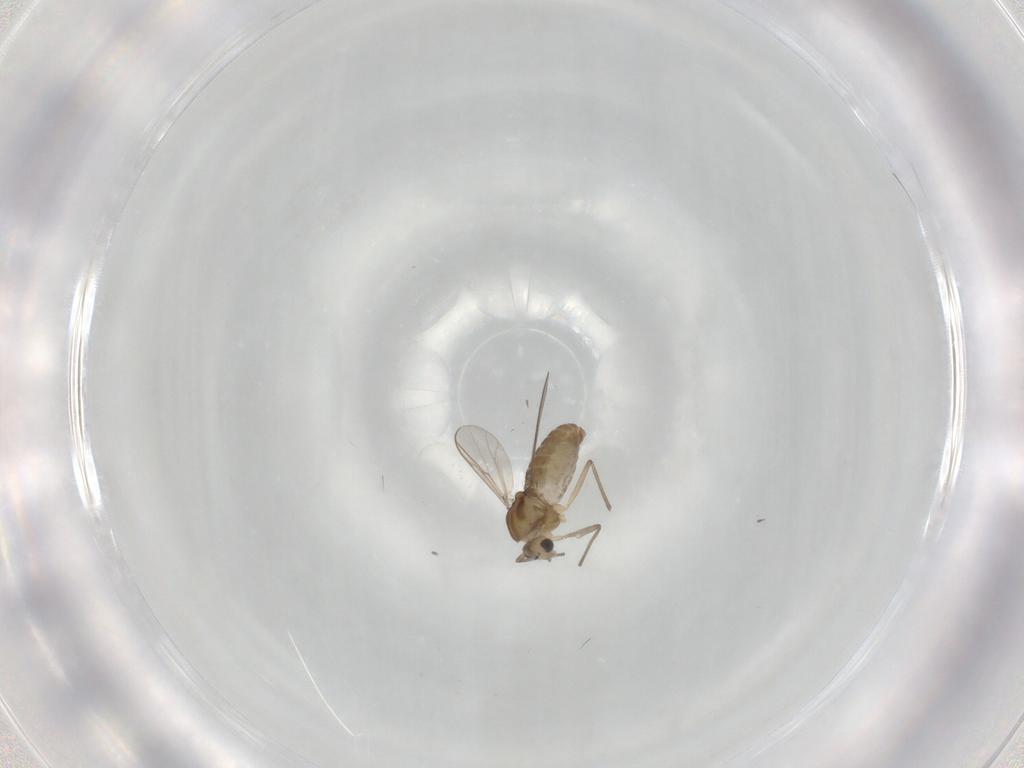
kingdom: Animalia
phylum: Arthropoda
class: Insecta
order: Diptera
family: Chironomidae
